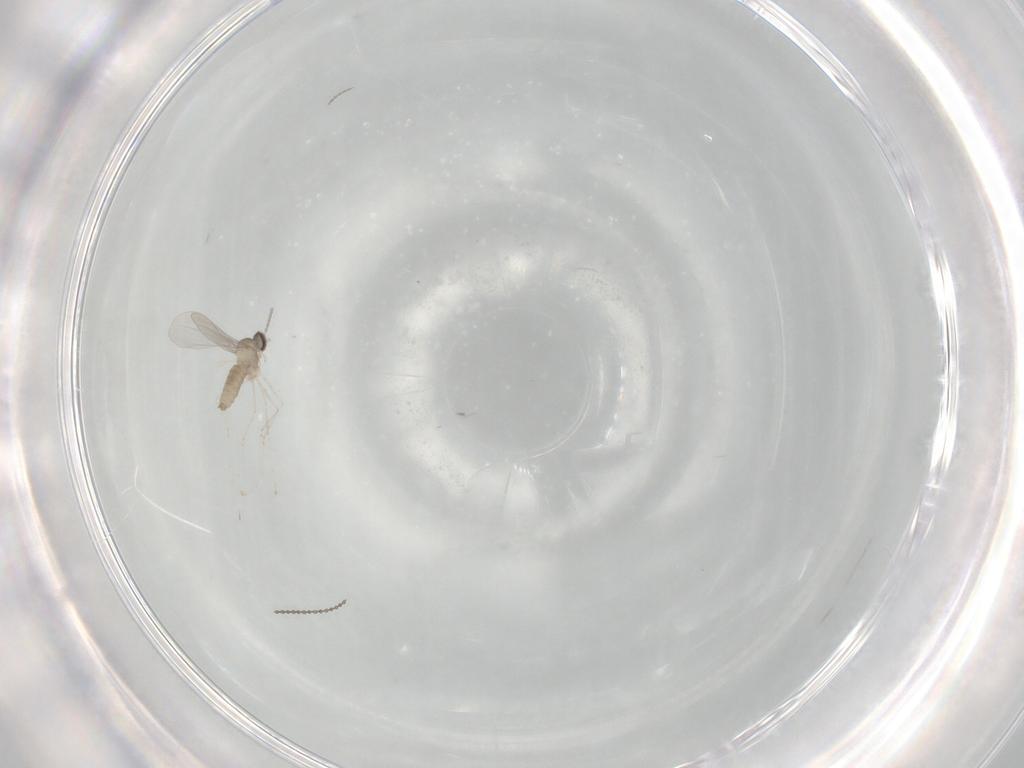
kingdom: Animalia
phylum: Arthropoda
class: Insecta
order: Diptera
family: Cecidomyiidae
